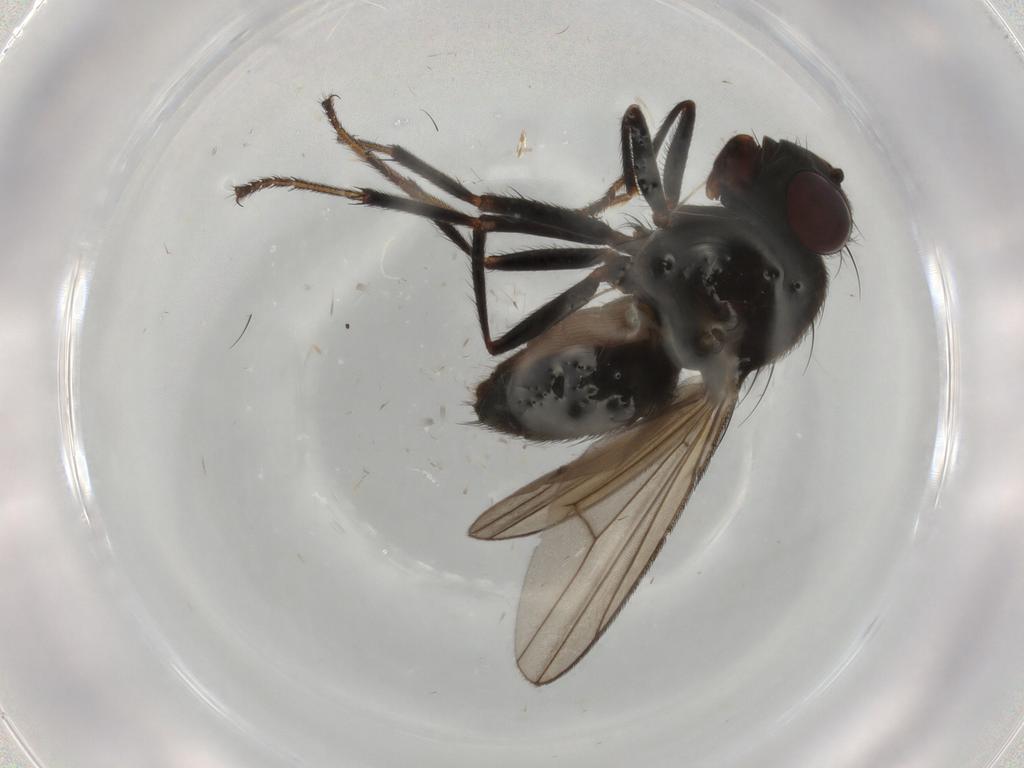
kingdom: Animalia
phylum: Arthropoda
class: Insecta
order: Diptera
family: Ephydridae
